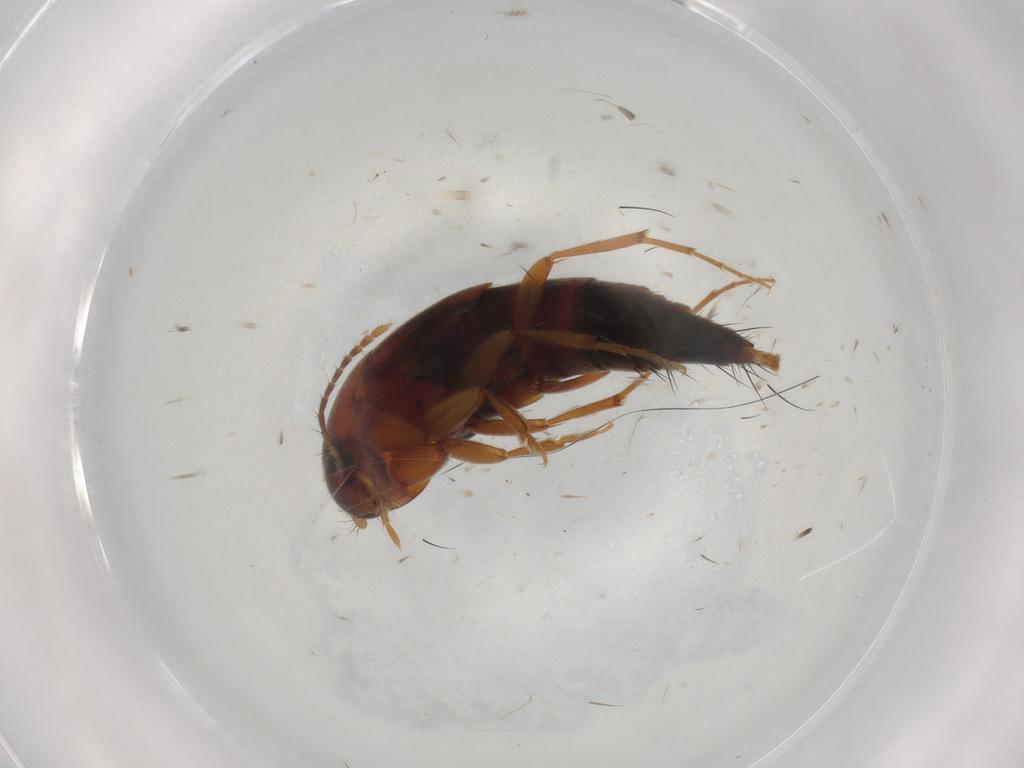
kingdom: Animalia
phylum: Arthropoda
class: Insecta
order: Coleoptera
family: Staphylinidae
